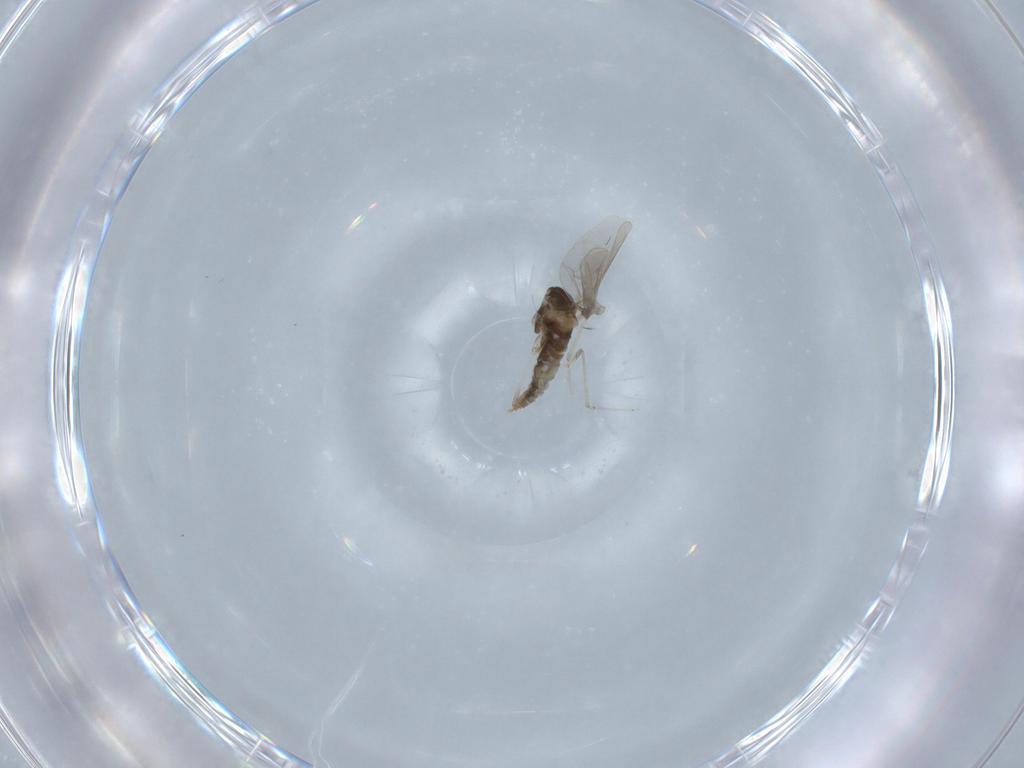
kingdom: Animalia
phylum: Arthropoda
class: Insecta
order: Diptera
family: Cecidomyiidae
